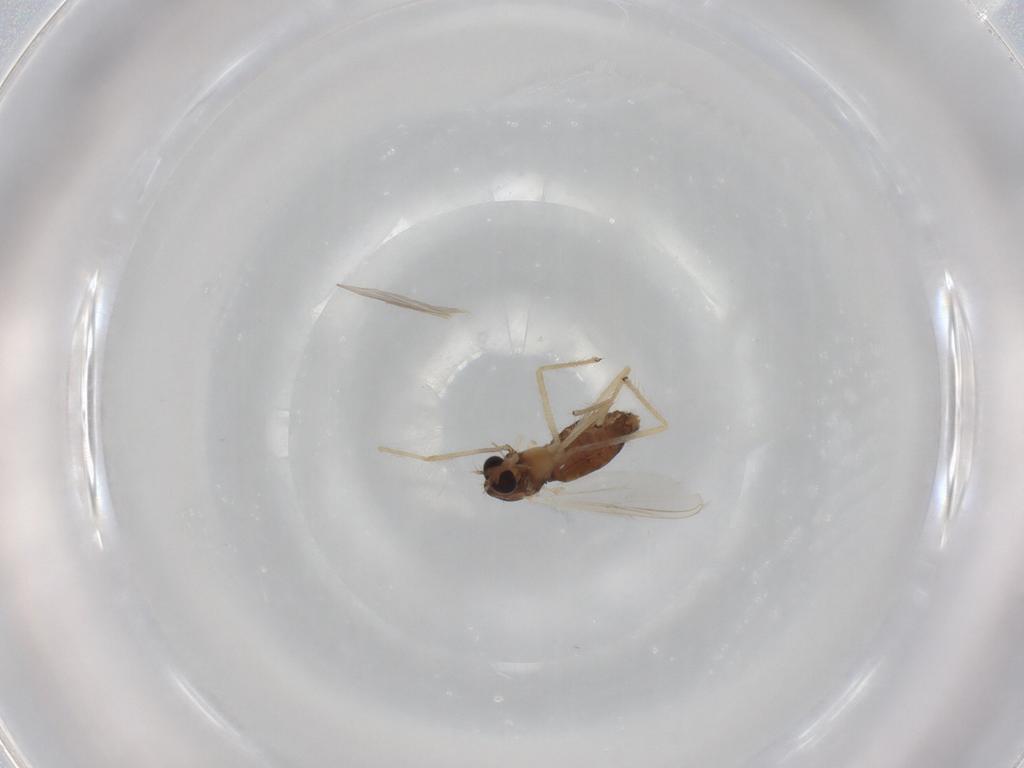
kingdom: Animalia
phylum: Arthropoda
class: Insecta
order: Diptera
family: Chironomidae
